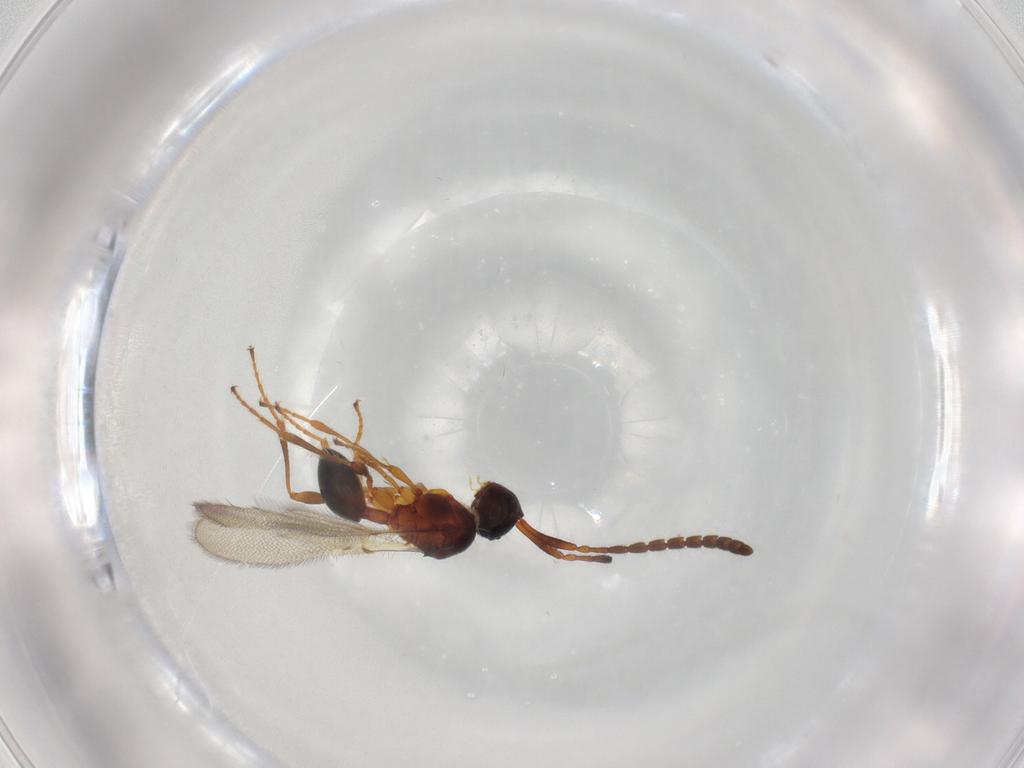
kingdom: Animalia
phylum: Arthropoda
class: Insecta
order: Hymenoptera
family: Diapriidae
